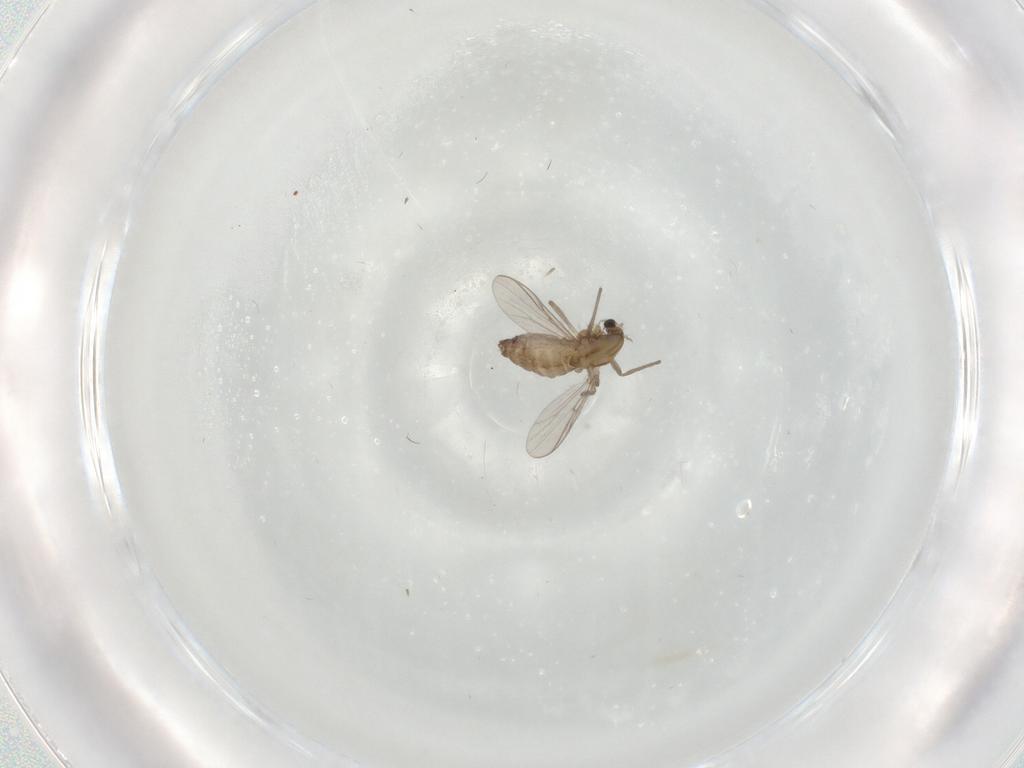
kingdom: Animalia
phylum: Arthropoda
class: Insecta
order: Diptera
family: Chironomidae
